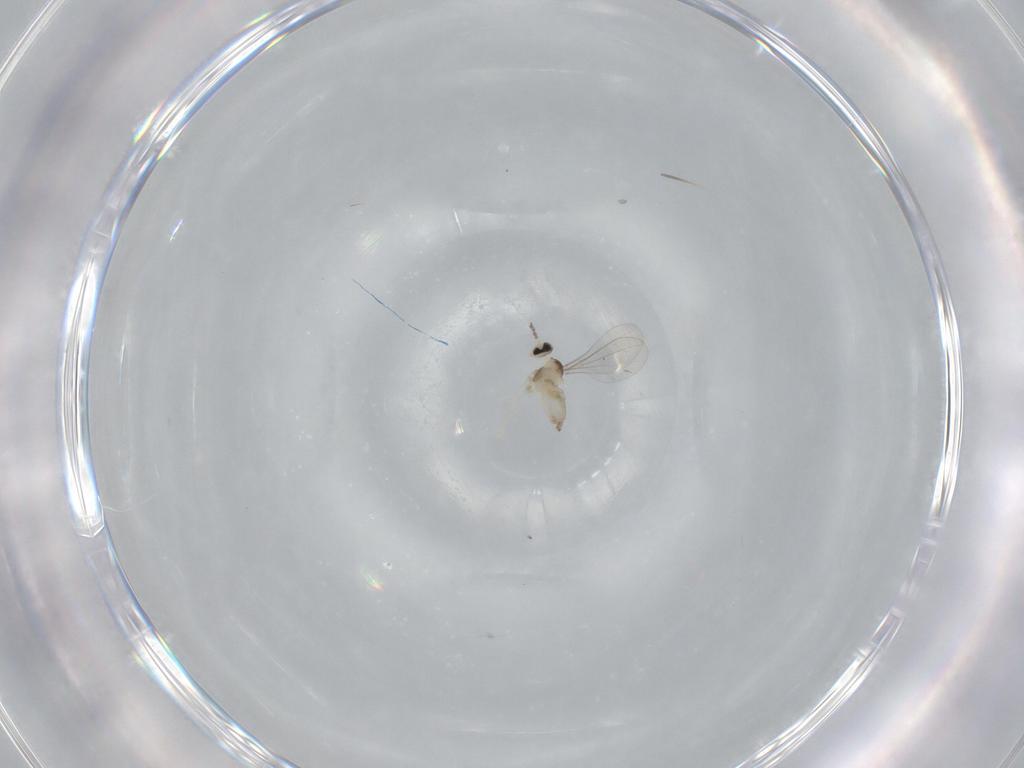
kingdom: Animalia
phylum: Arthropoda
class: Insecta
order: Diptera
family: Cecidomyiidae
